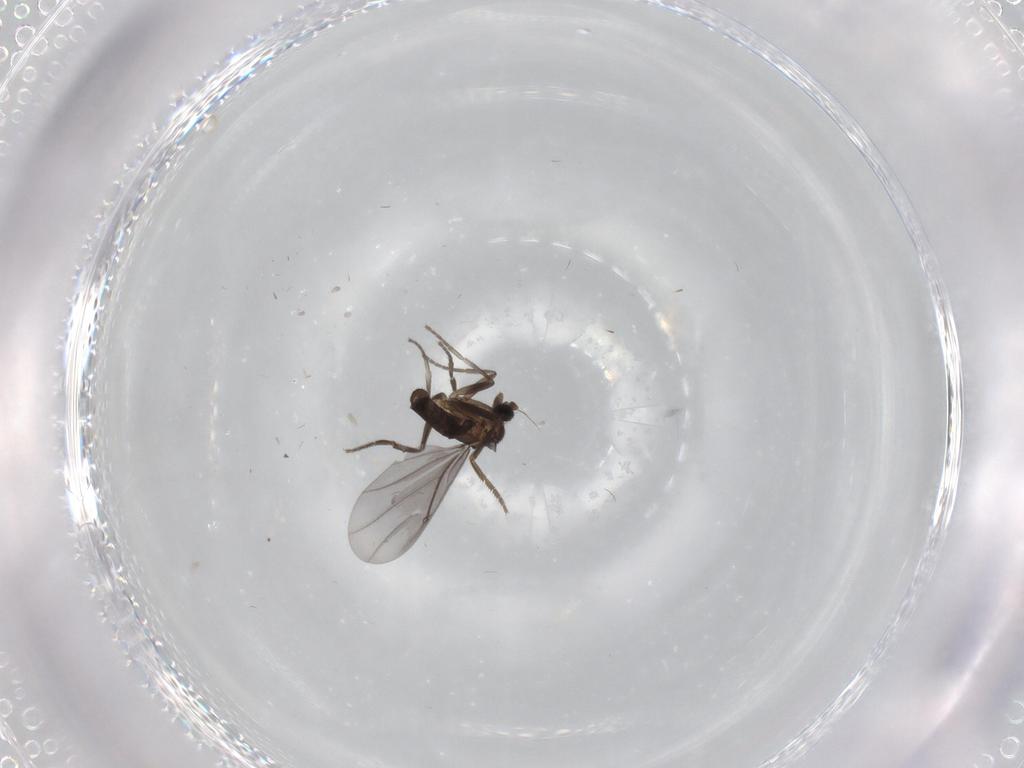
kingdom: Animalia
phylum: Arthropoda
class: Insecta
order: Diptera
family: Phoridae
